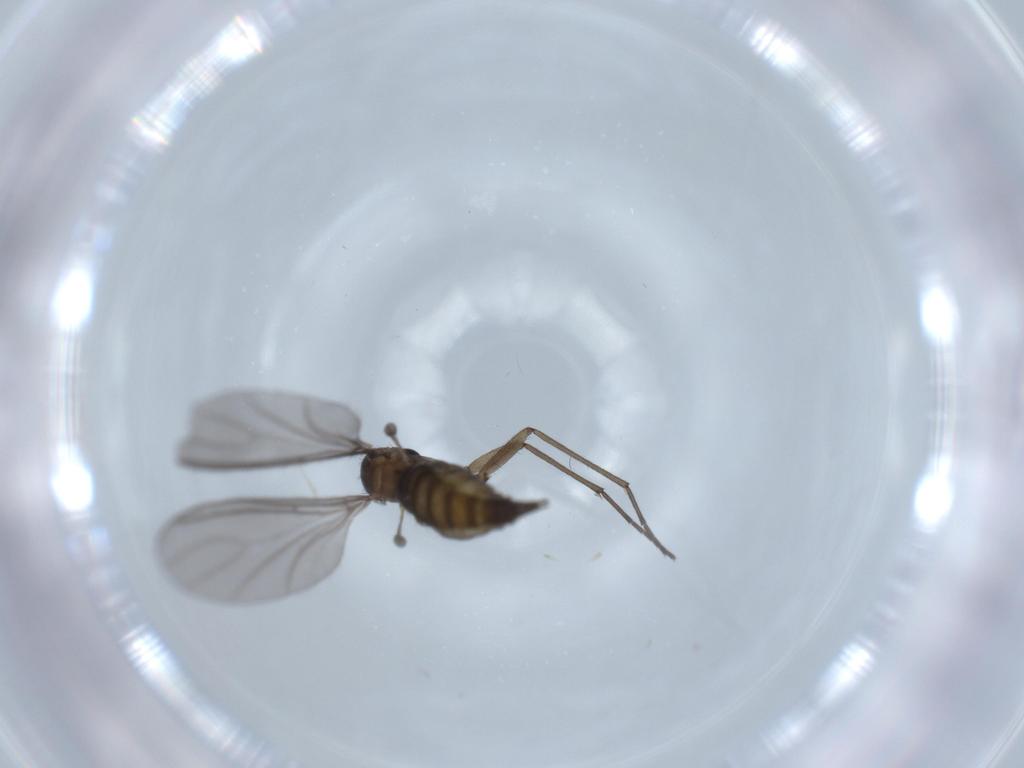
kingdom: Animalia
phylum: Arthropoda
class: Insecta
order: Diptera
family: Sciaridae
